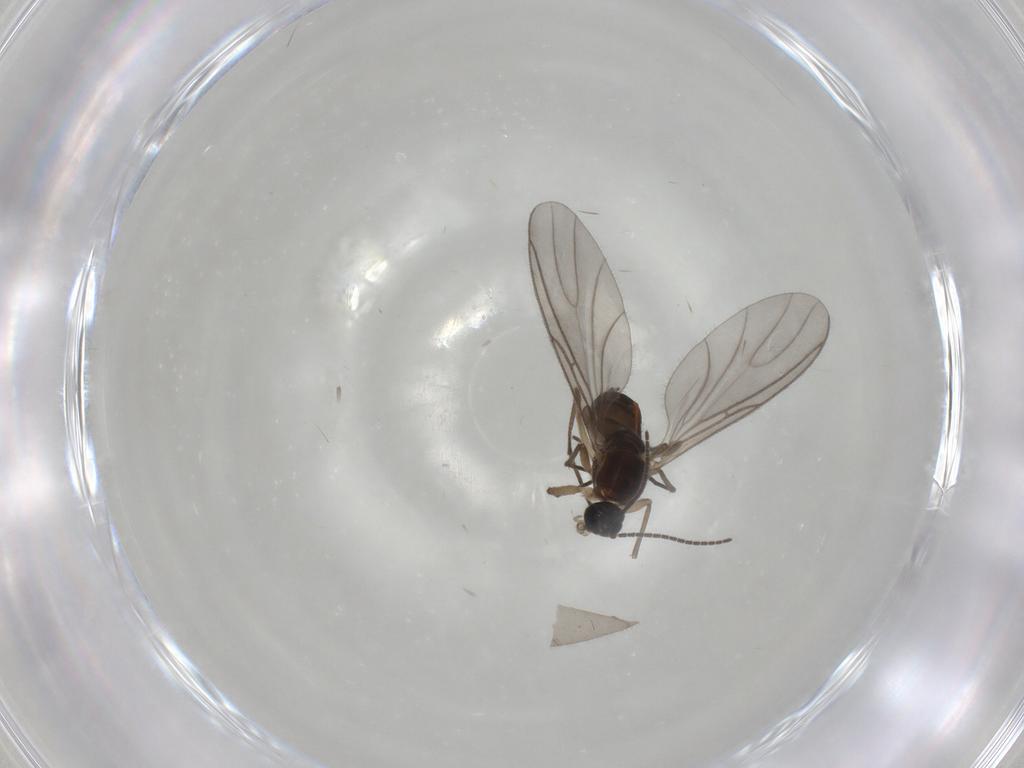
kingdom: Animalia
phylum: Arthropoda
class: Insecta
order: Diptera
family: Sciaridae
